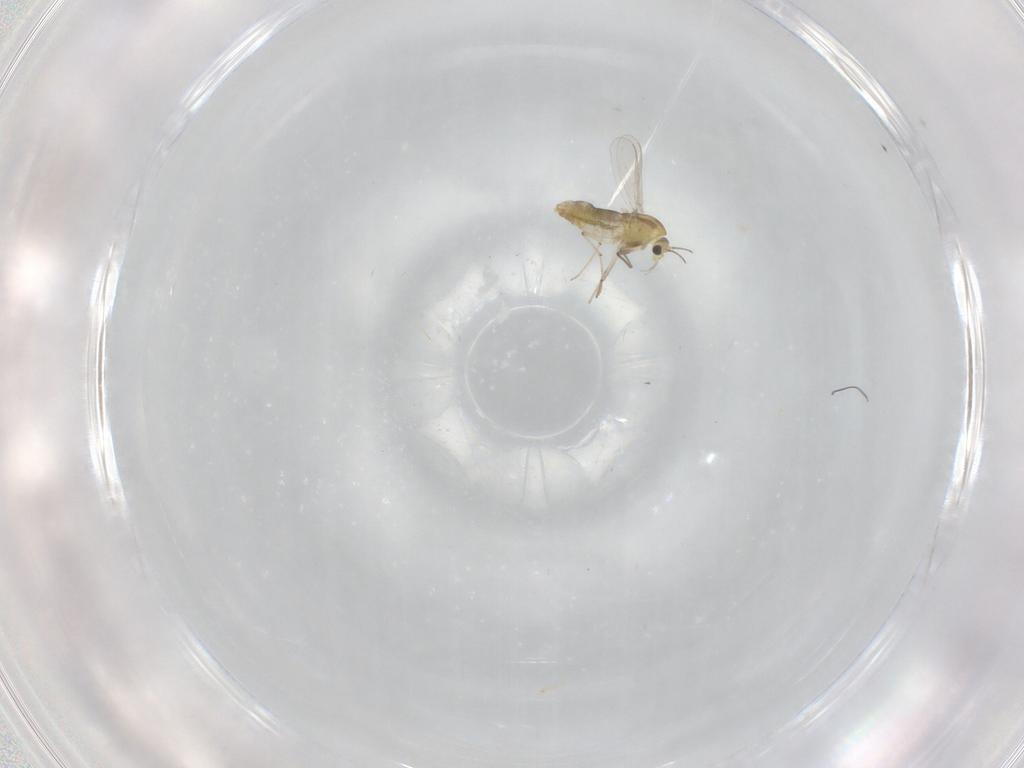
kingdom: Animalia
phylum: Arthropoda
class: Insecta
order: Diptera
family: Chironomidae
